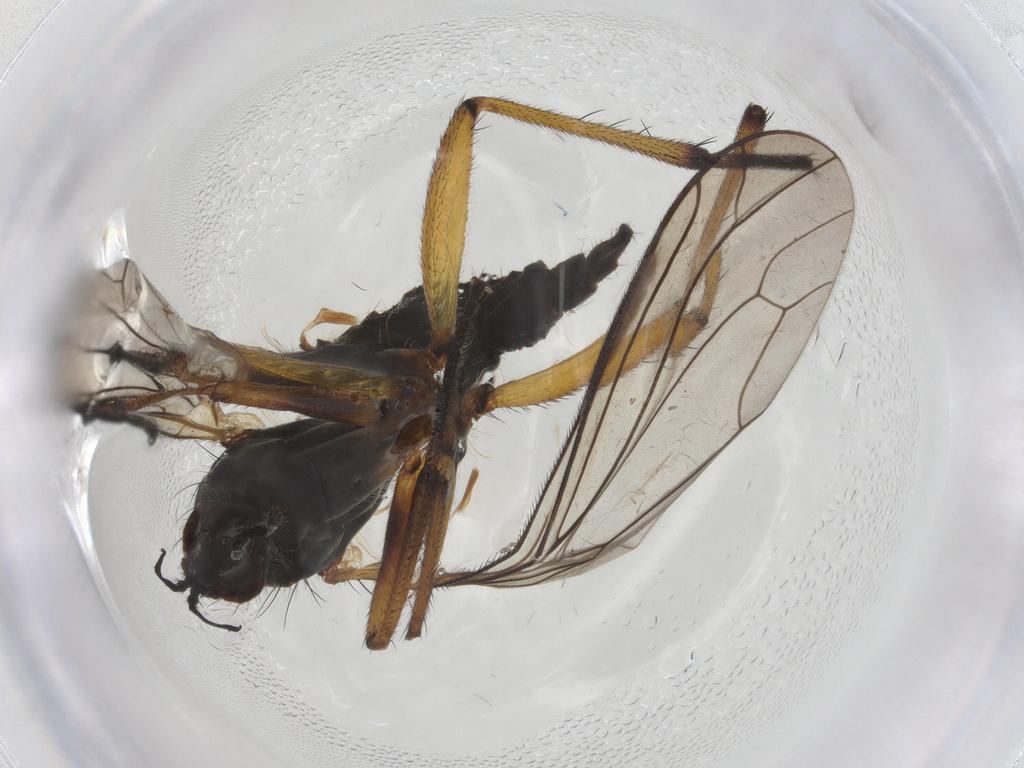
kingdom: Animalia
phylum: Arthropoda
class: Insecta
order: Diptera
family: Empididae
